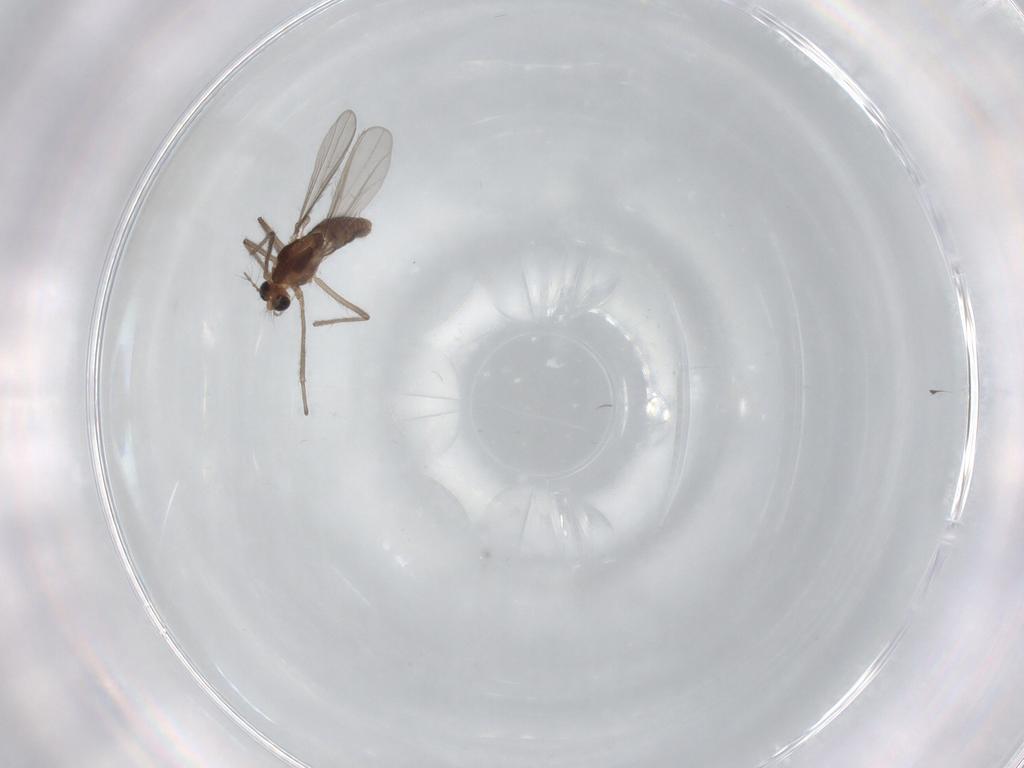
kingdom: Animalia
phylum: Arthropoda
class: Insecta
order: Diptera
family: Chironomidae
